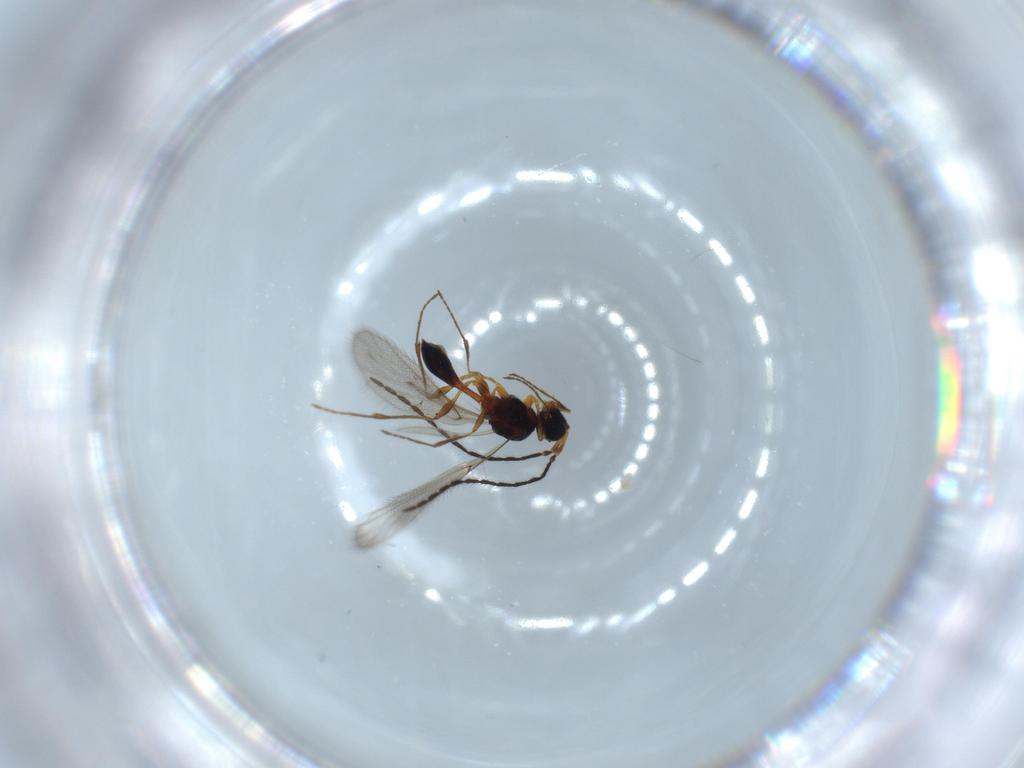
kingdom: Animalia
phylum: Arthropoda
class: Insecta
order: Hymenoptera
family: Diapriidae
